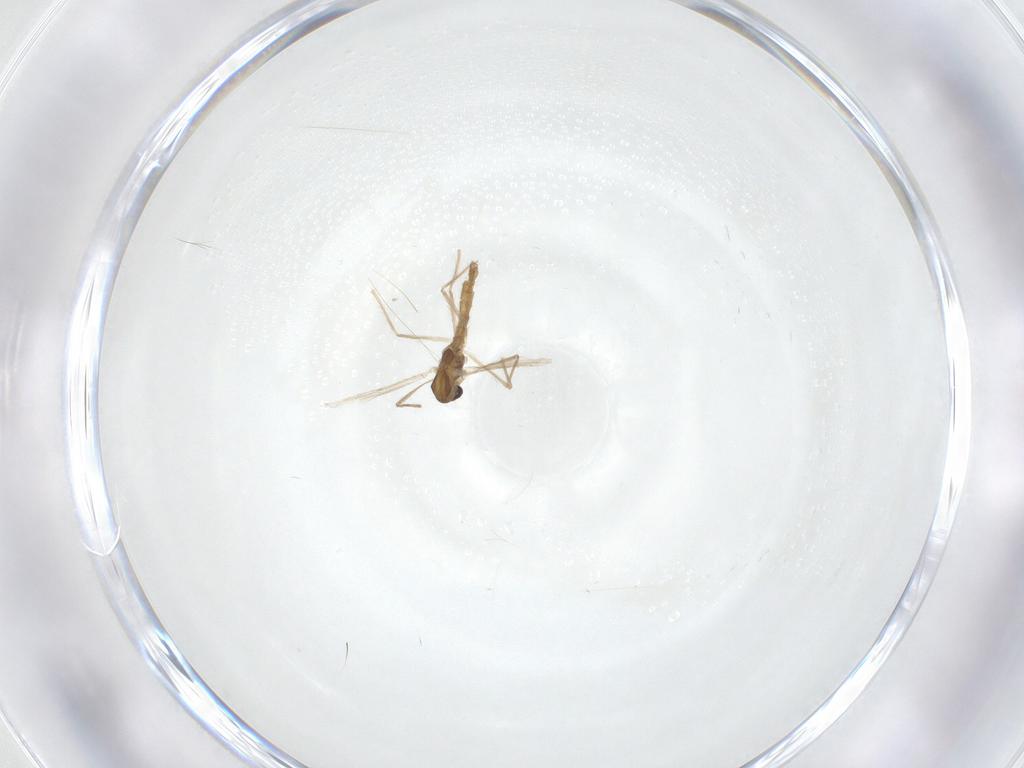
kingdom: Animalia
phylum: Arthropoda
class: Insecta
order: Diptera
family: Chironomidae
